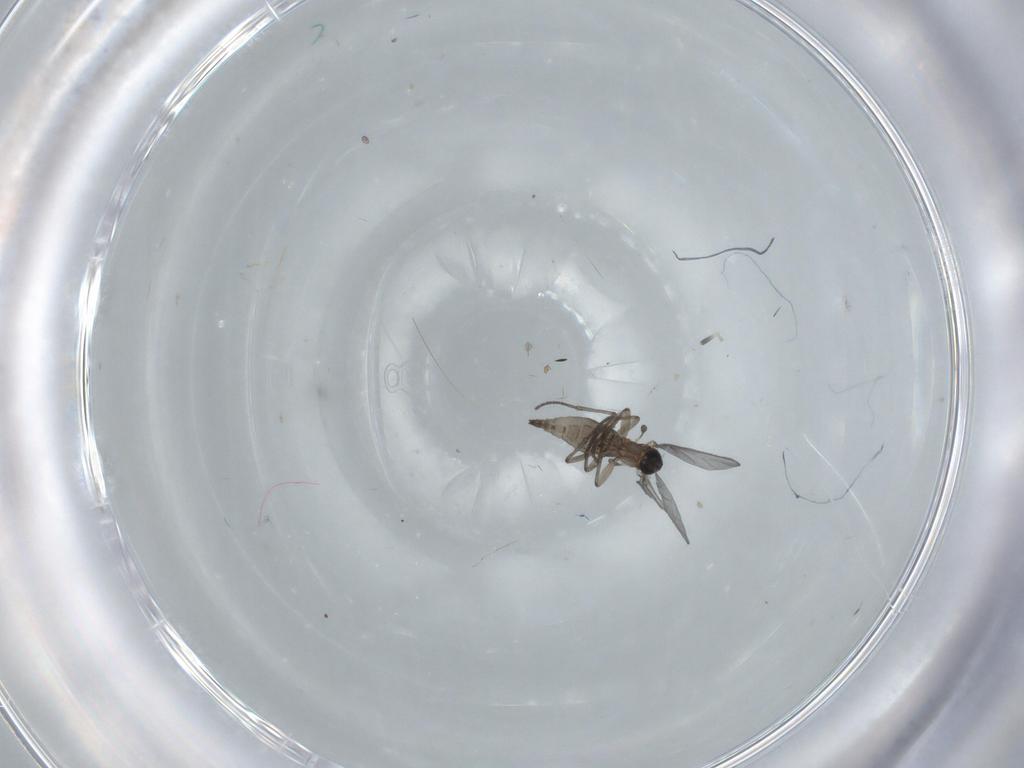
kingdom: Animalia
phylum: Arthropoda
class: Insecta
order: Diptera
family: Phoridae
